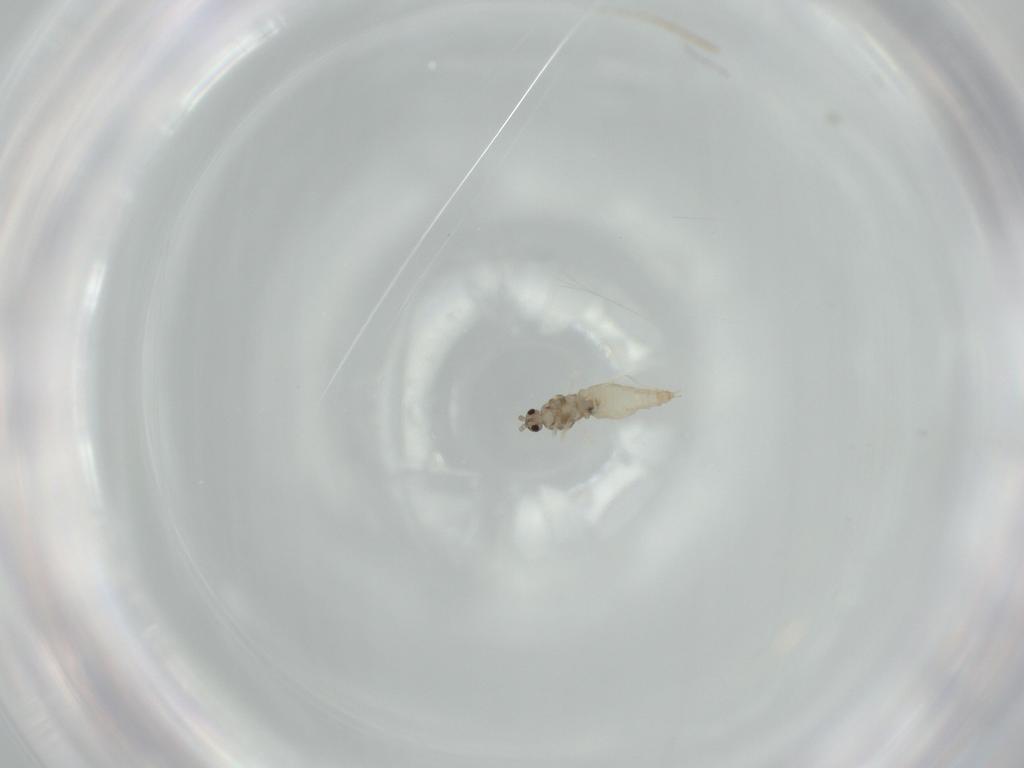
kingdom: Animalia
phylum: Arthropoda
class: Insecta
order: Diptera
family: Cecidomyiidae
